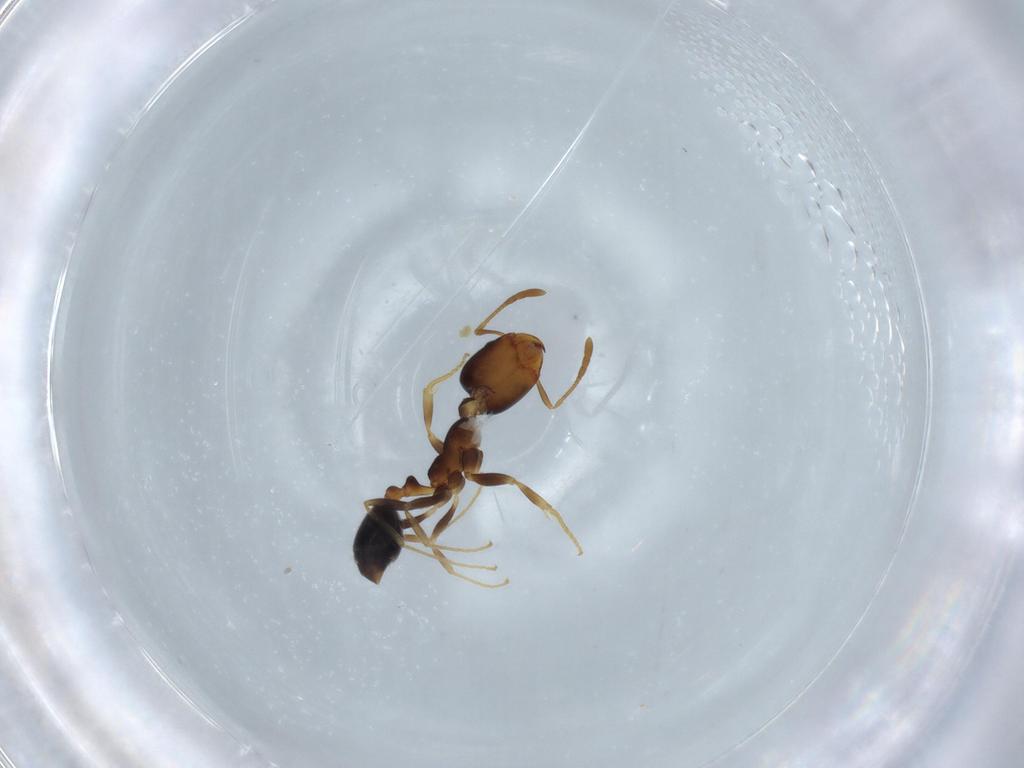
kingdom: Animalia
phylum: Arthropoda
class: Insecta
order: Hymenoptera
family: Formicidae
